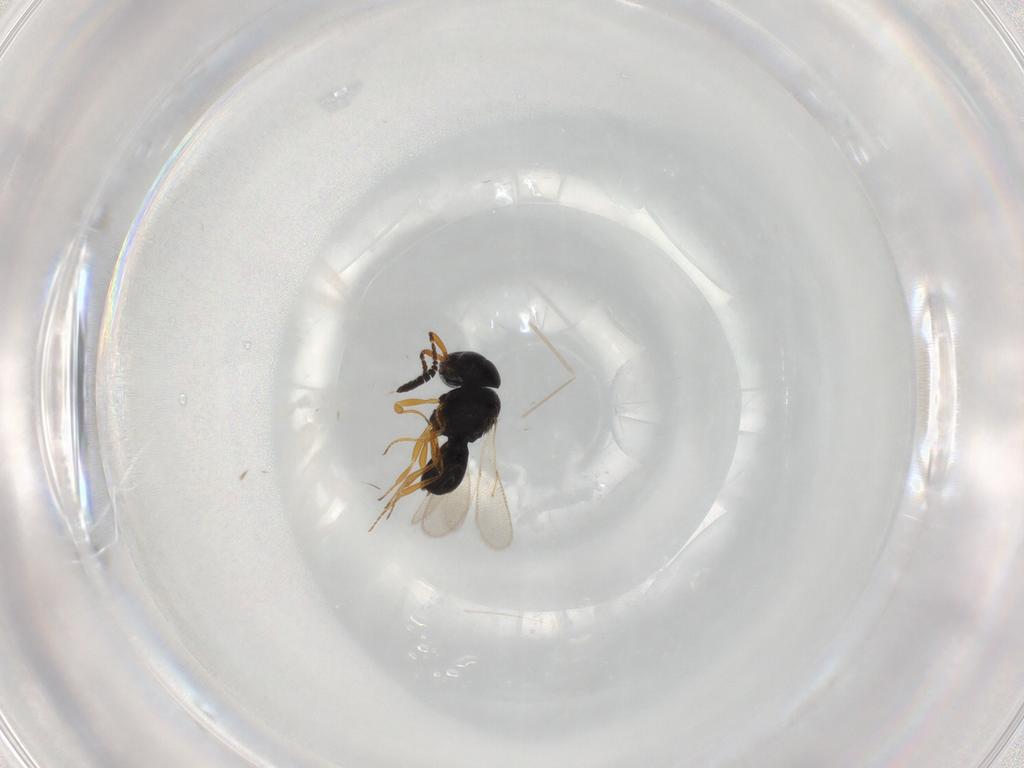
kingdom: Animalia
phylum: Arthropoda
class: Insecta
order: Hymenoptera
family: Scelionidae
